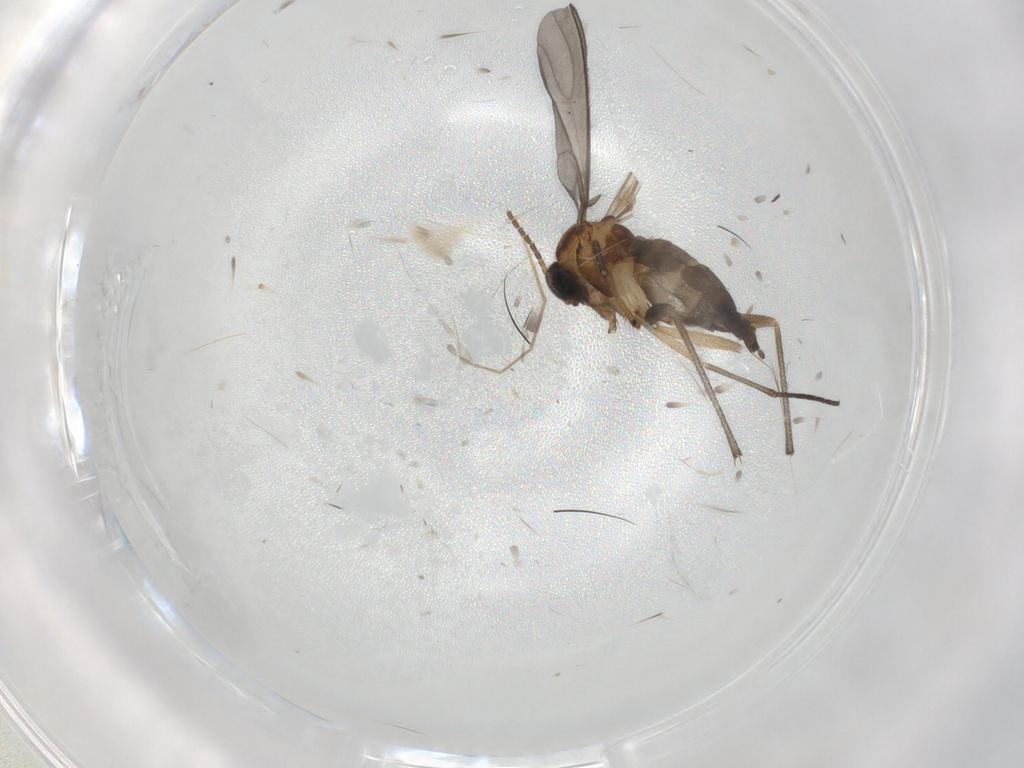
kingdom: Animalia
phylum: Arthropoda
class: Insecta
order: Diptera
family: Sciaridae
